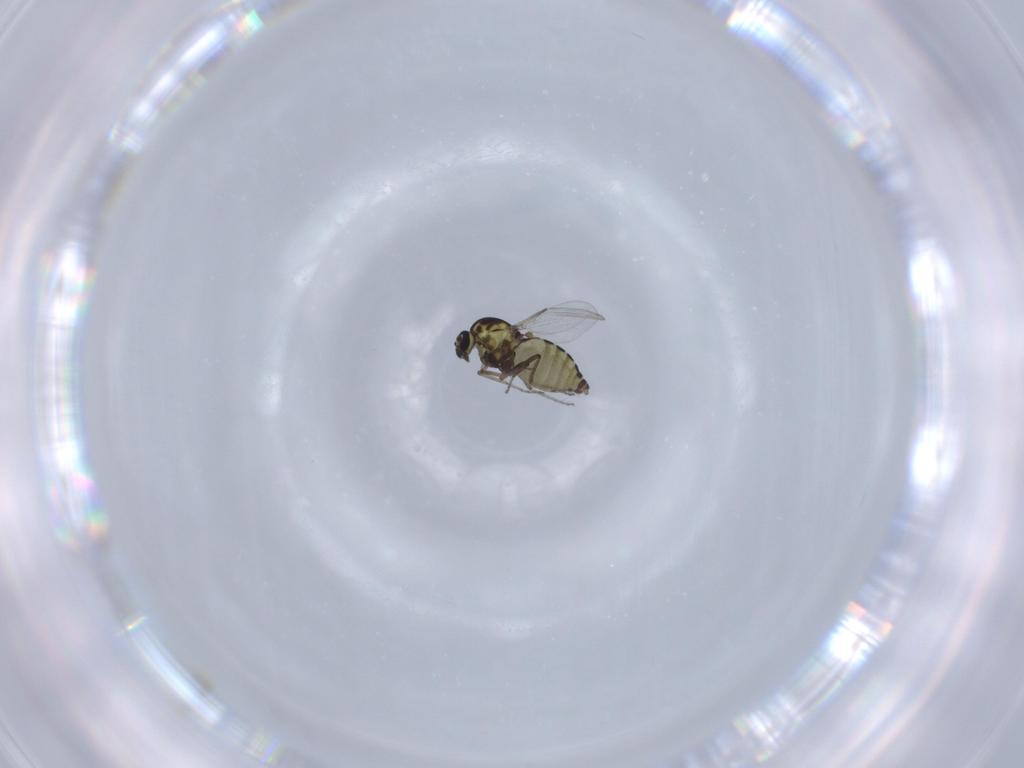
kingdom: Animalia
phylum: Arthropoda
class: Insecta
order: Diptera
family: Ceratopogonidae
